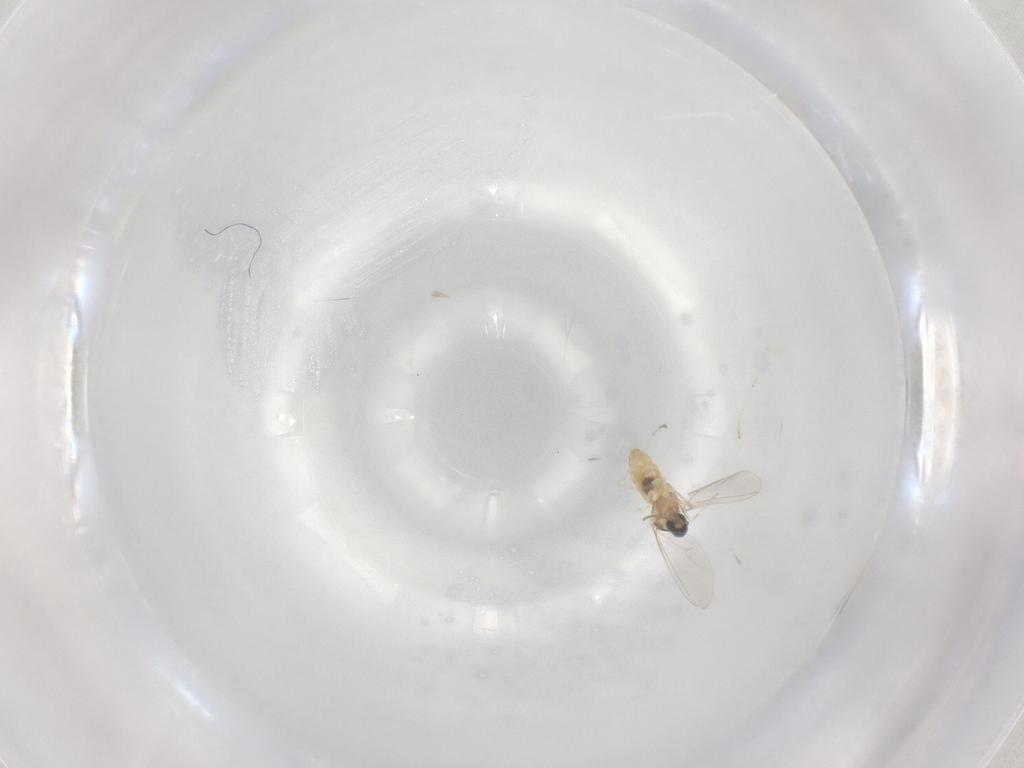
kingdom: Animalia
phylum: Arthropoda
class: Insecta
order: Diptera
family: Cecidomyiidae
